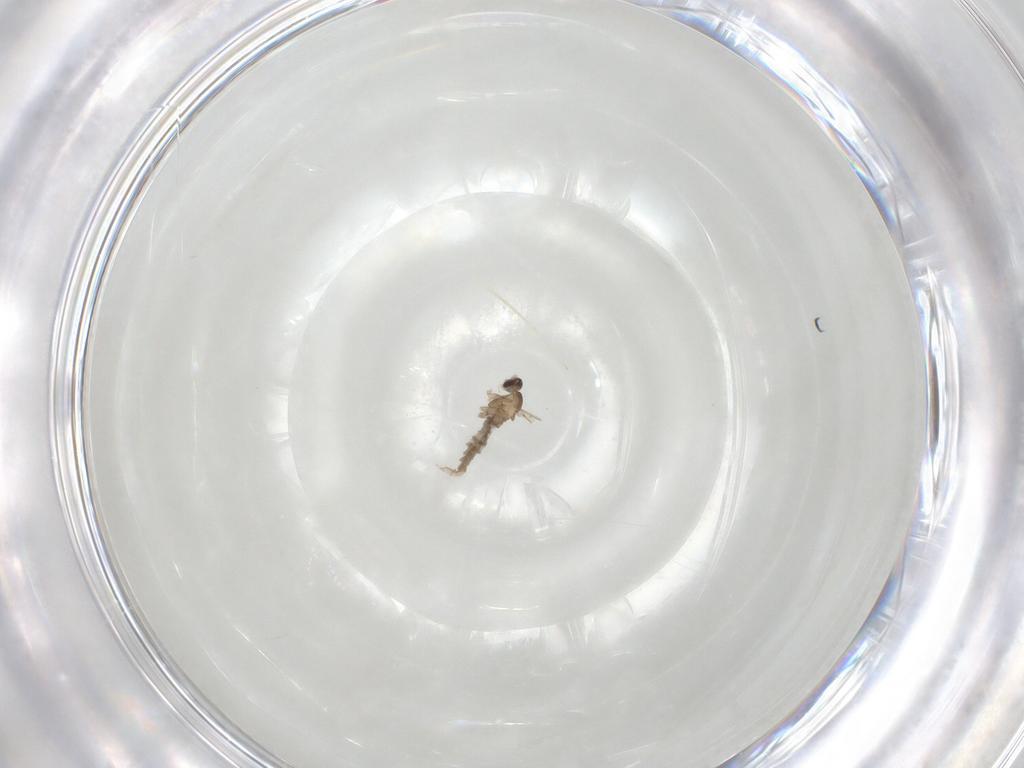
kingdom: Animalia
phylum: Arthropoda
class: Insecta
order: Diptera
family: Cecidomyiidae
